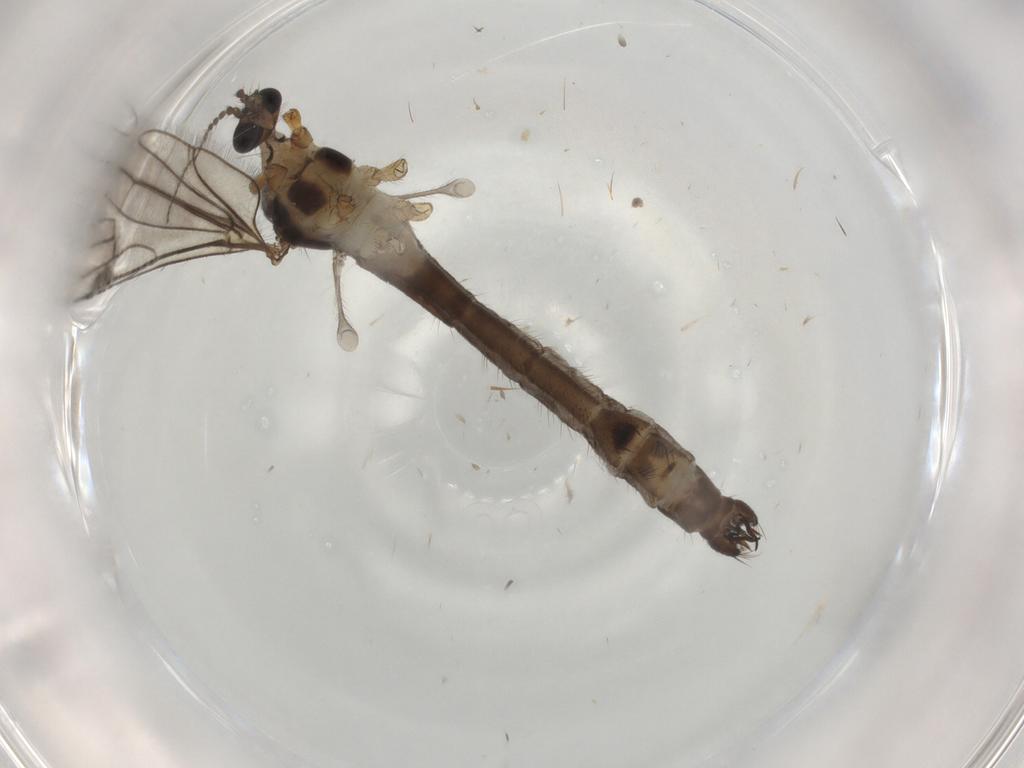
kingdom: Animalia
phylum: Arthropoda
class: Insecta
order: Diptera
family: Limoniidae
